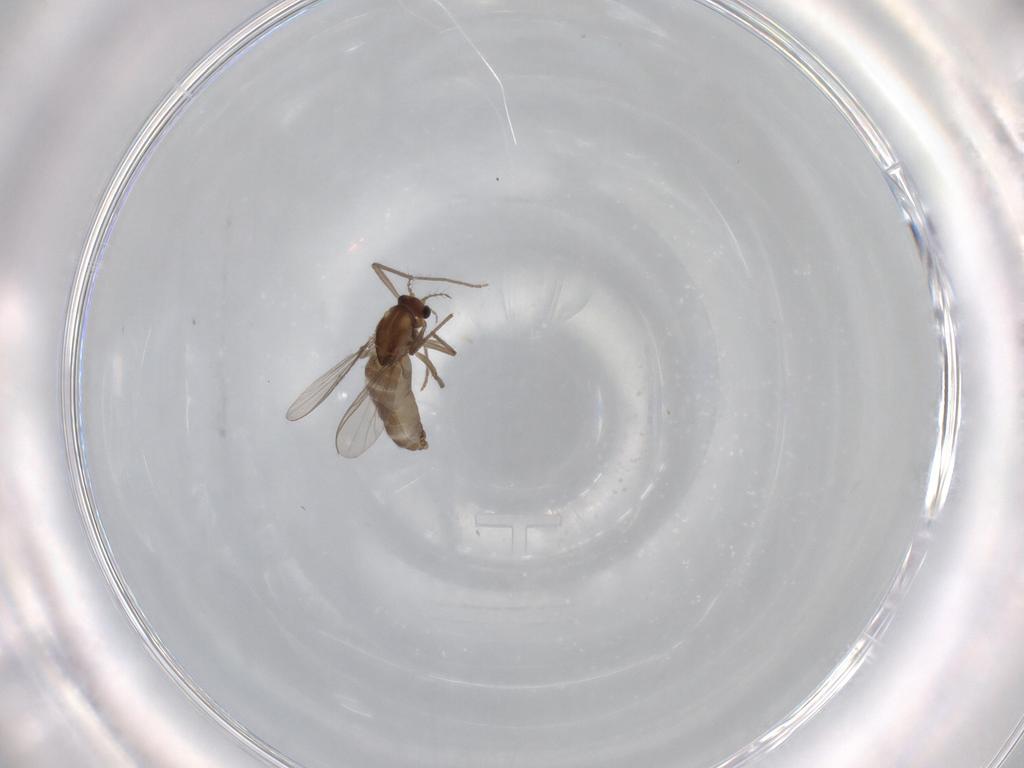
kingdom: Animalia
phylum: Arthropoda
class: Insecta
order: Diptera
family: Chironomidae
